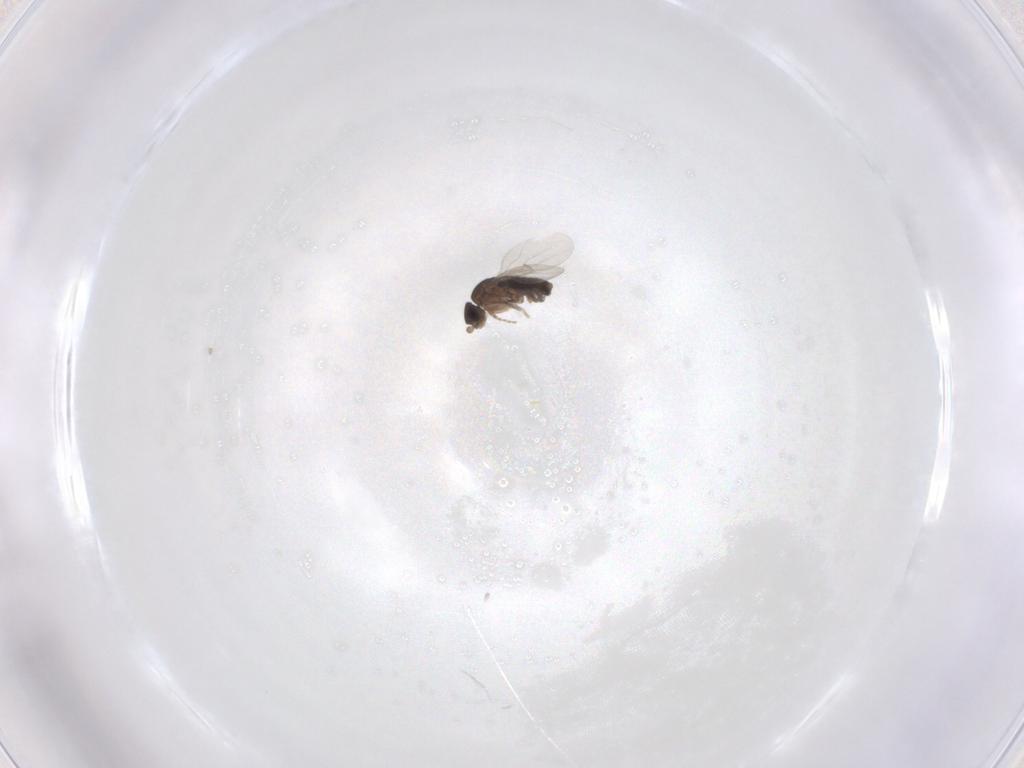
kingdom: Animalia
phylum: Arthropoda
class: Insecta
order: Diptera
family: Phoridae
